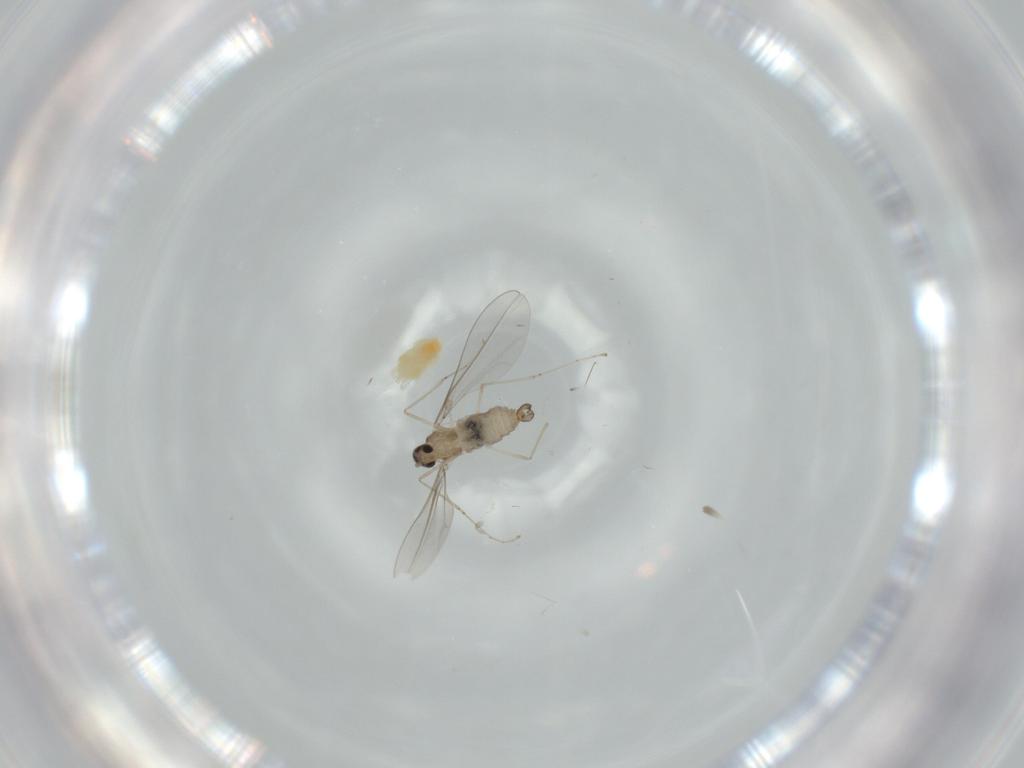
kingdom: Animalia
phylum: Arthropoda
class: Insecta
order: Diptera
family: Cecidomyiidae
